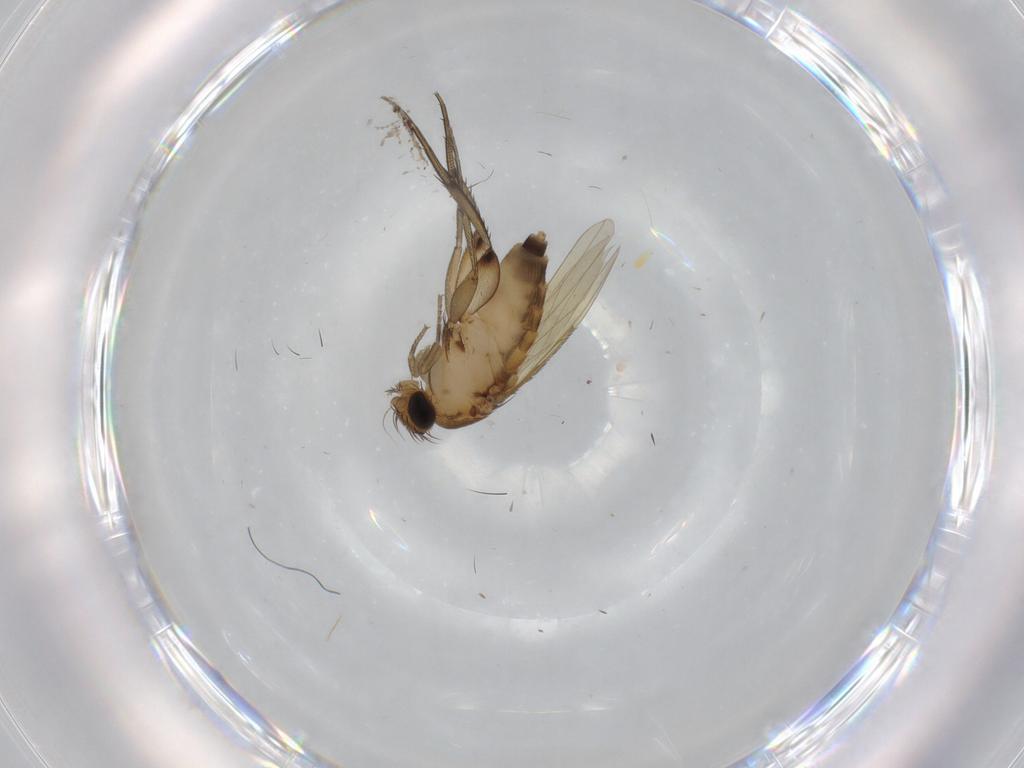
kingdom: Animalia
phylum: Arthropoda
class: Insecta
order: Diptera
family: Phoridae
